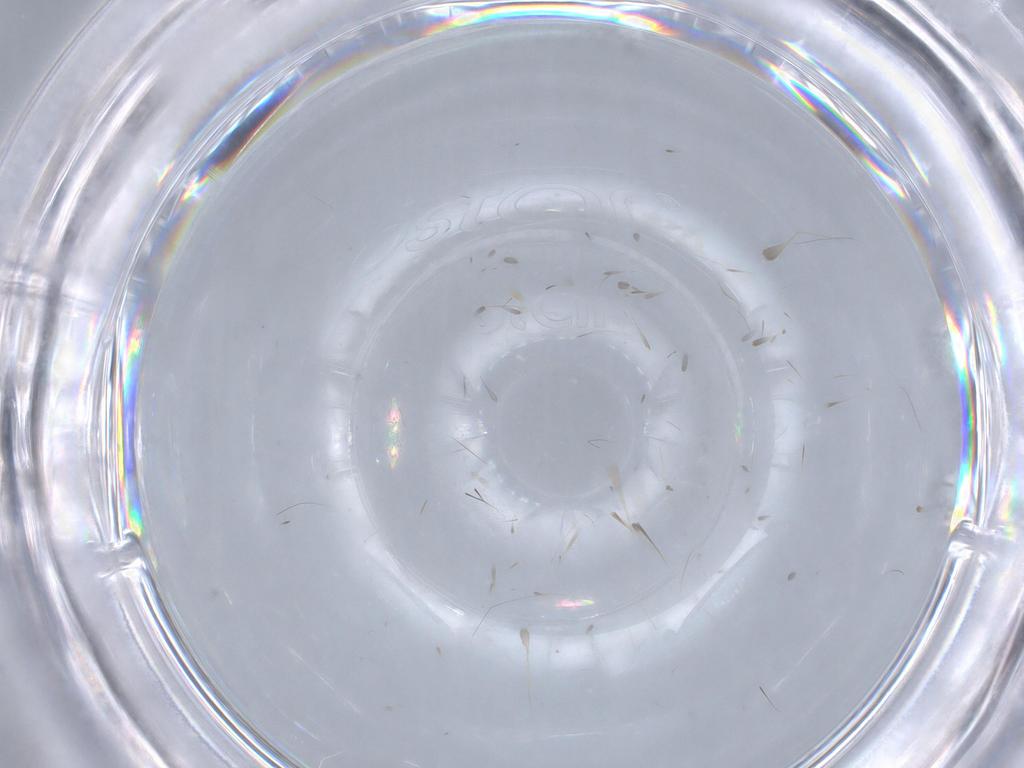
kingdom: Animalia
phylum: Arthropoda
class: Insecta
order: Diptera
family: Chironomidae
